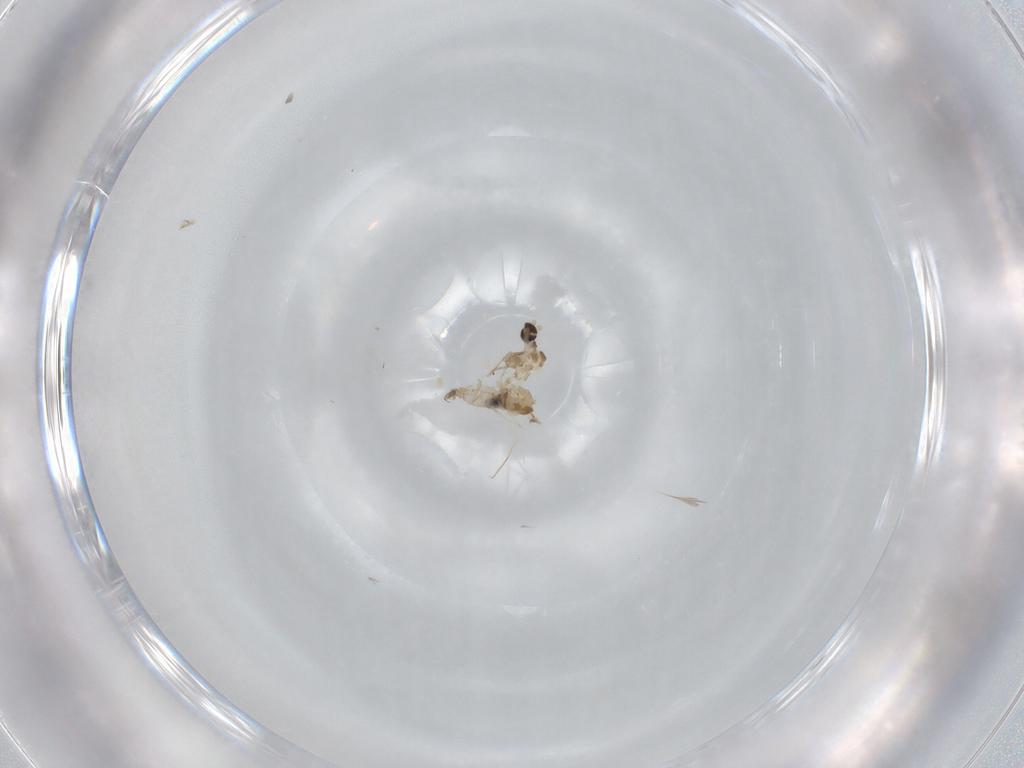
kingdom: Animalia
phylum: Arthropoda
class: Insecta
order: Diptera
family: Cecidomyiidae
